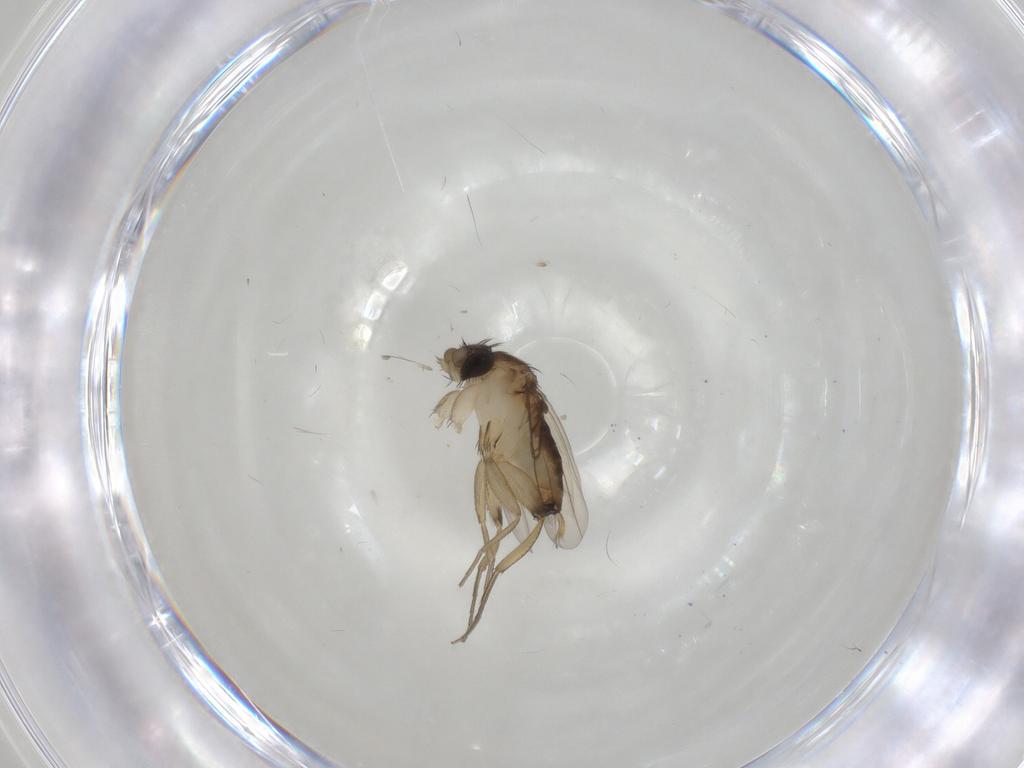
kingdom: Animalia
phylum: Arthropoda
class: Insecta
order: Diptera
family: Phoridae
